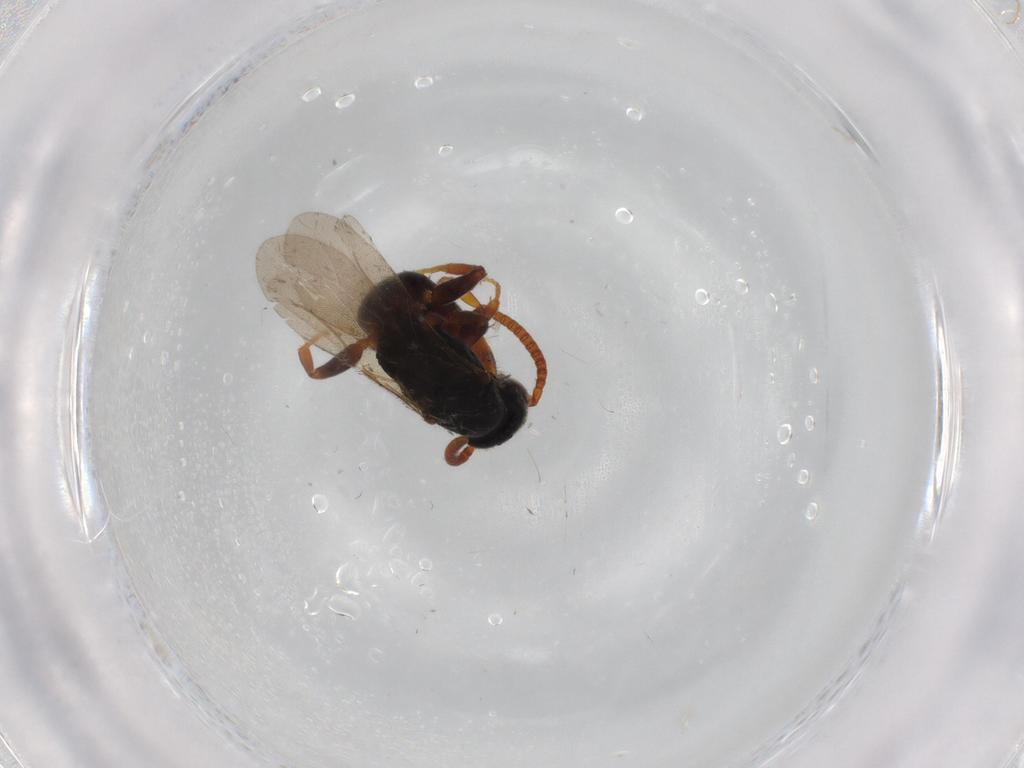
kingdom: Animalia
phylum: Arthropoda
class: Insecta
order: Hymenoptera
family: Bethylidae
